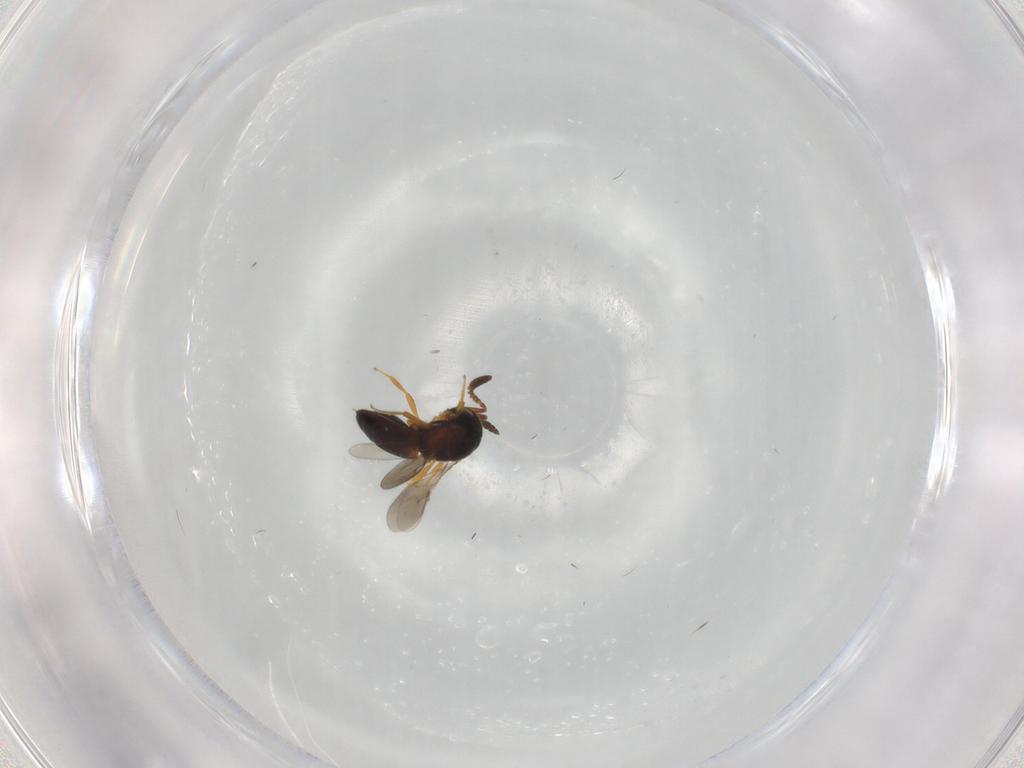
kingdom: Animalia
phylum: Arthropoda
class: Insecta
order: Hymenoptera
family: Scelionidae
